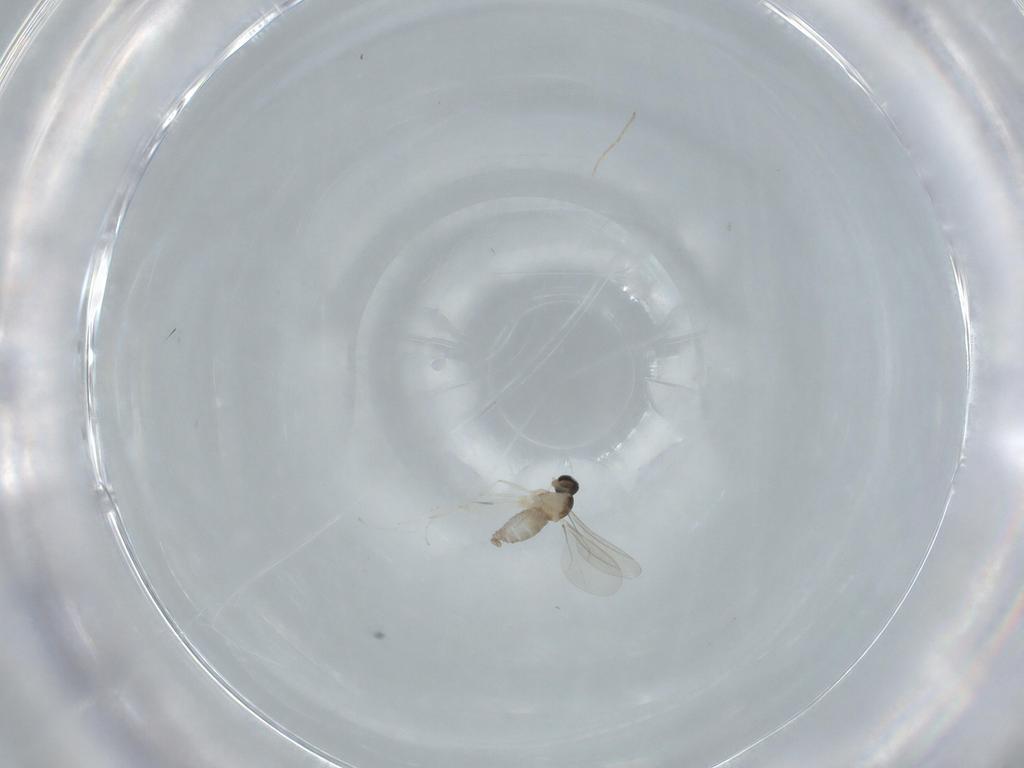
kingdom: Animalia
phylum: Arthropoda
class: Insecta
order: Diptera
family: Cecidomyiidae
